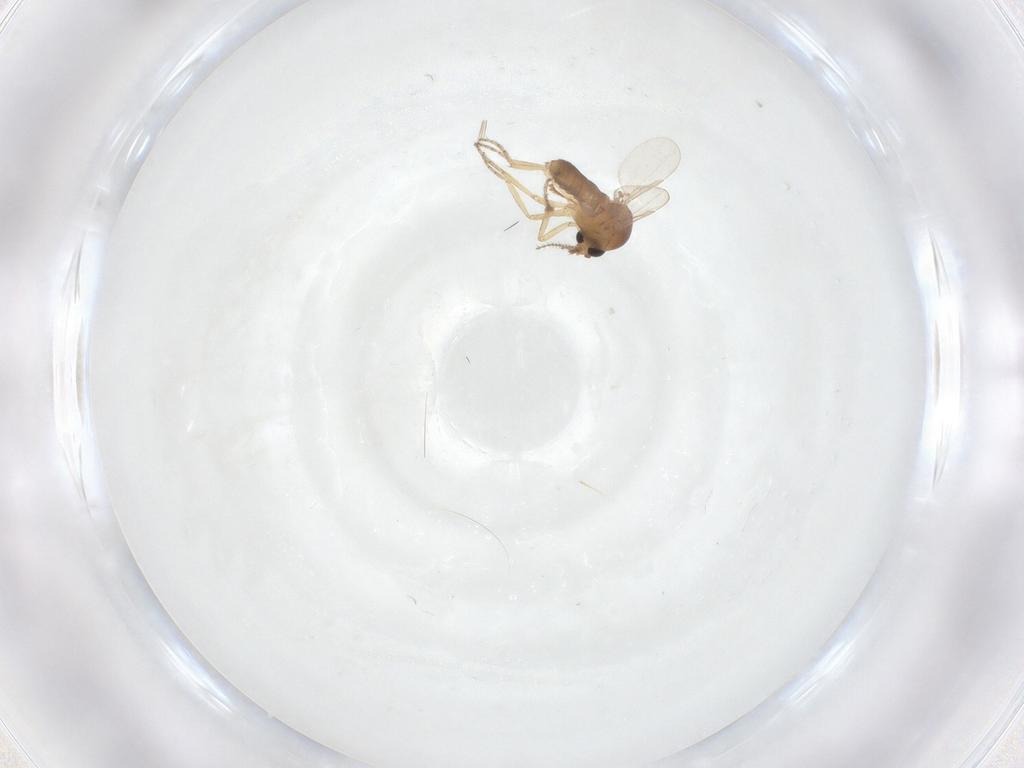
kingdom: Animalia
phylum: Arthropoda
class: Insecta
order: Diptera
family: Ceratopogonidae
